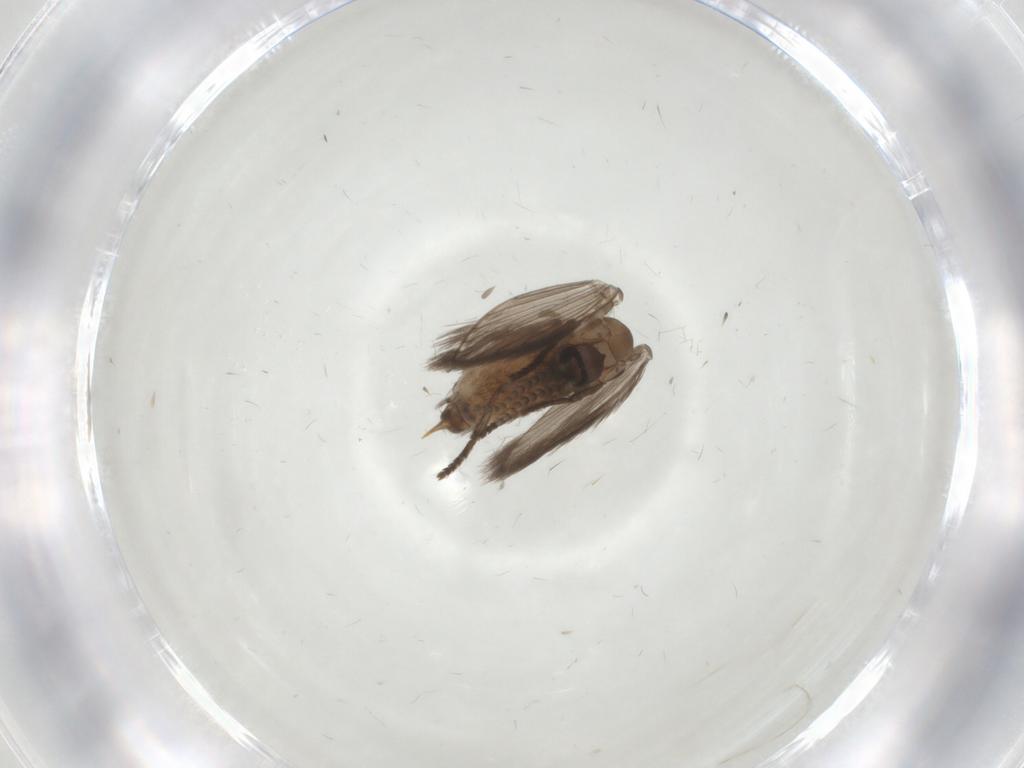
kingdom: Animalia
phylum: Arthropoda
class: Insecta
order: Diptera
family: Psychodidae
